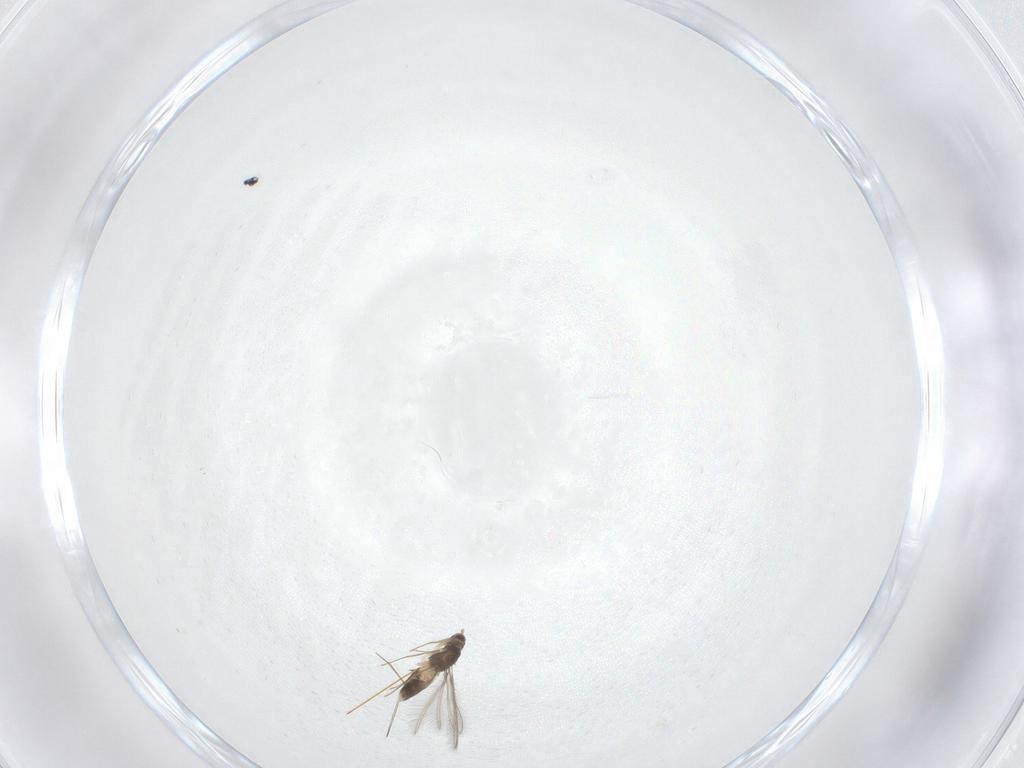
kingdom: Animalia
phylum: Arthropoda
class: Insecta
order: Hymenoptera
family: Mymaridae
